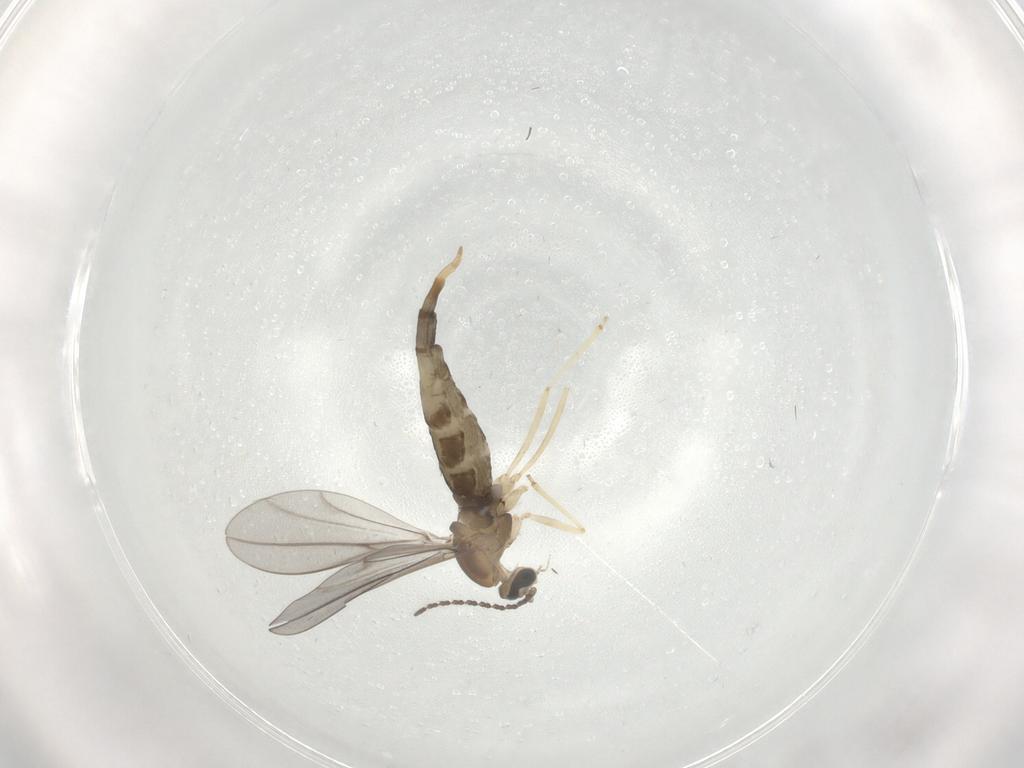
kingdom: Animalia
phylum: Arthropoda
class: Insecta
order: Diptera
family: Cecidomyiidae
